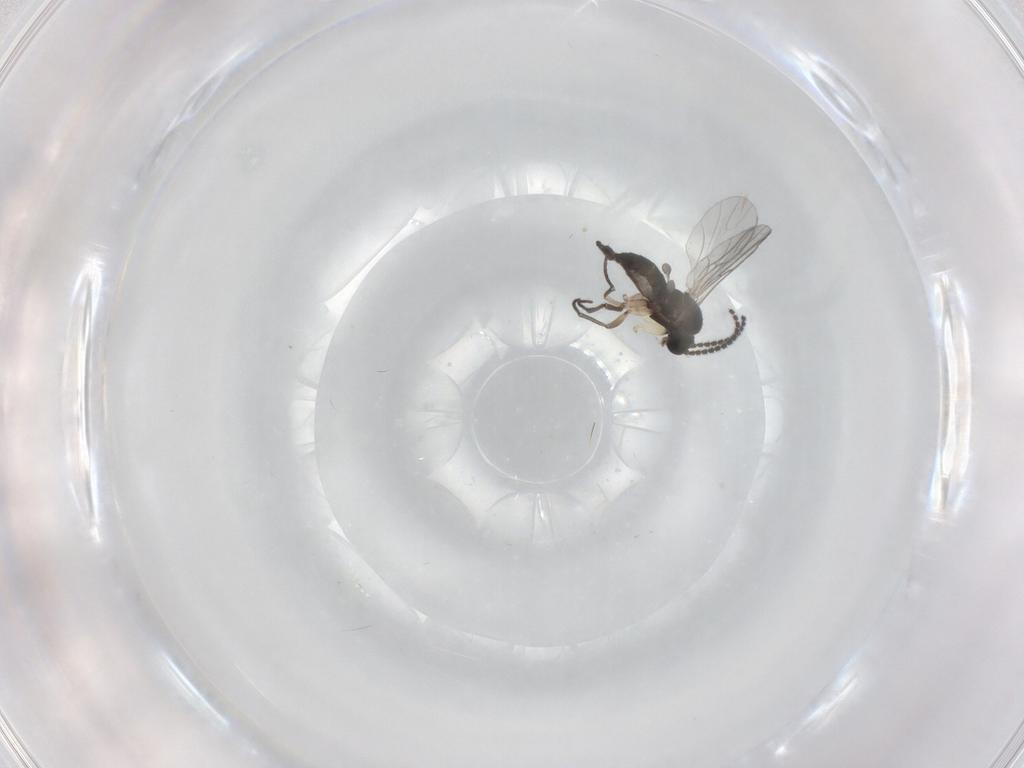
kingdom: Animalia
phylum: Arthropoda
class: Insecta
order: Diptera
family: Sciaridae
